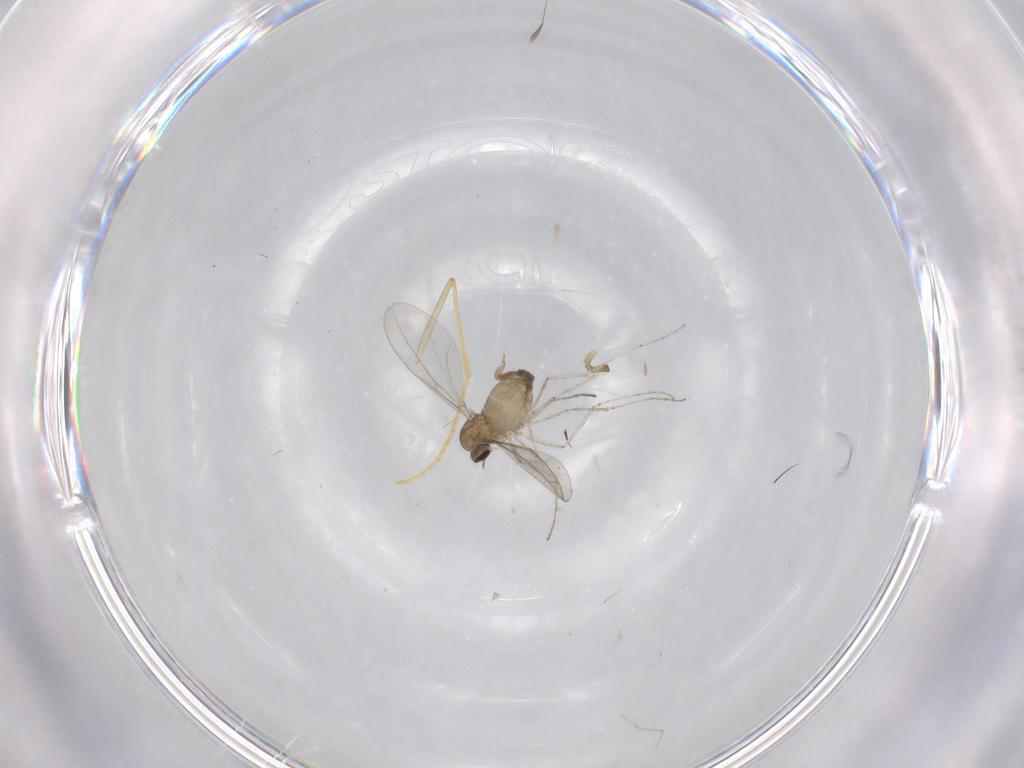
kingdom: Animalia
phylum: Arthropoda
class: Insecta
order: Diptera
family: Cecidomyiidae
